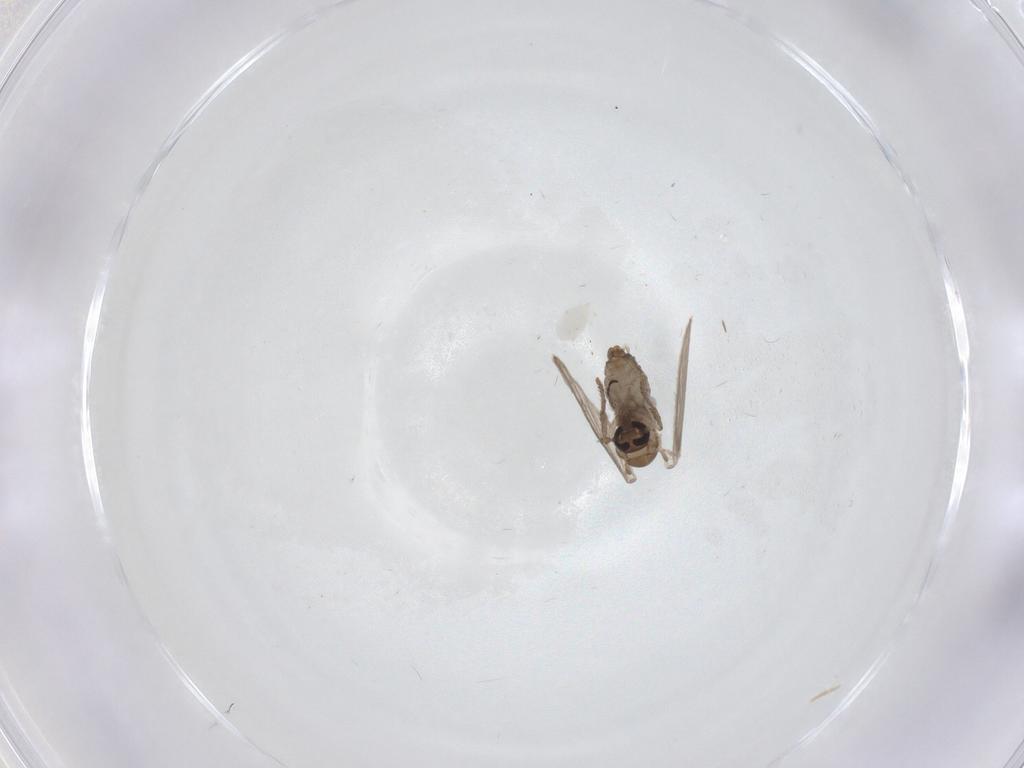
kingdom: Animalia
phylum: Arthropoda
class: Insecta
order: Diptera
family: Psychodidae
